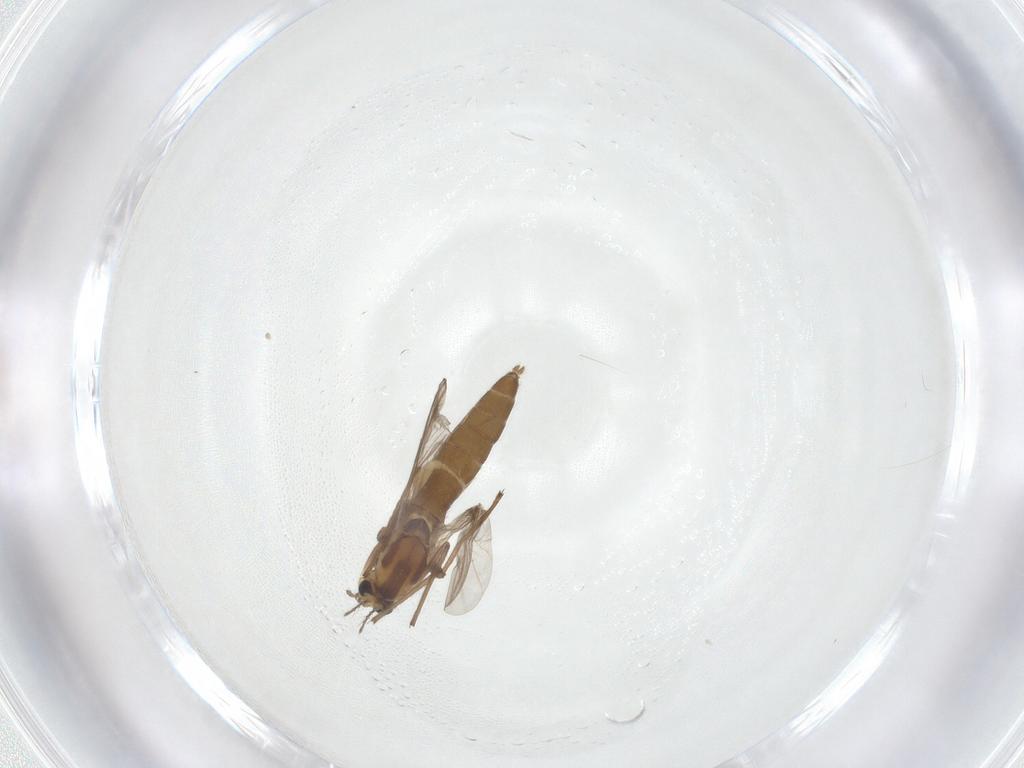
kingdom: Animalia
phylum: Arthropoda
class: Insecta
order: Diptera
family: Chironomidae
